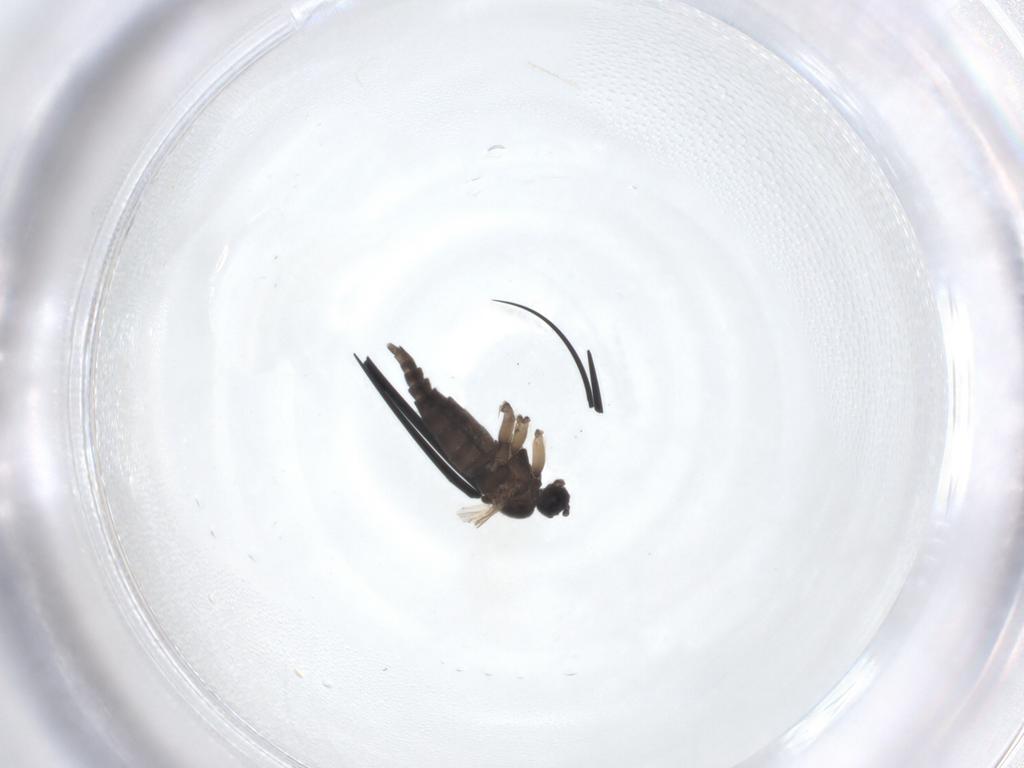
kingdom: Animalia
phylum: Arthropoda
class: Insecta
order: Diptera
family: Sciaridae
